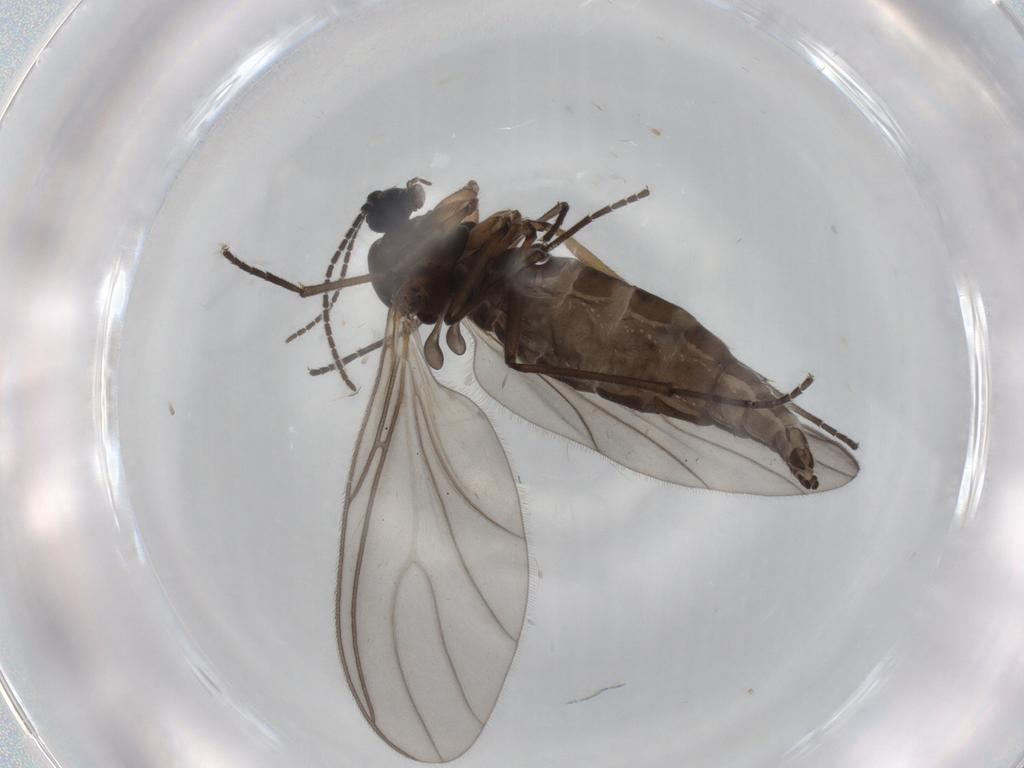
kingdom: Animalia
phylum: Arthropoda
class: Insecta
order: Diptera
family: Sciaridae
